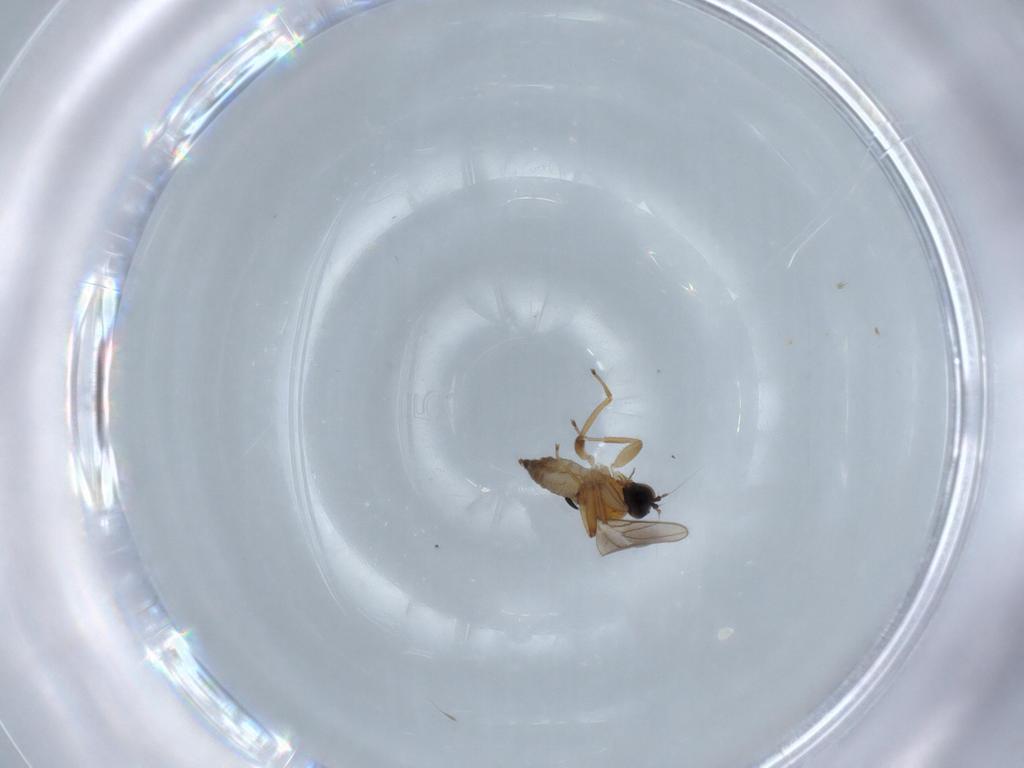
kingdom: Animalia
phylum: Arthropoda
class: Insecta
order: Diptera
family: Hybotidae
